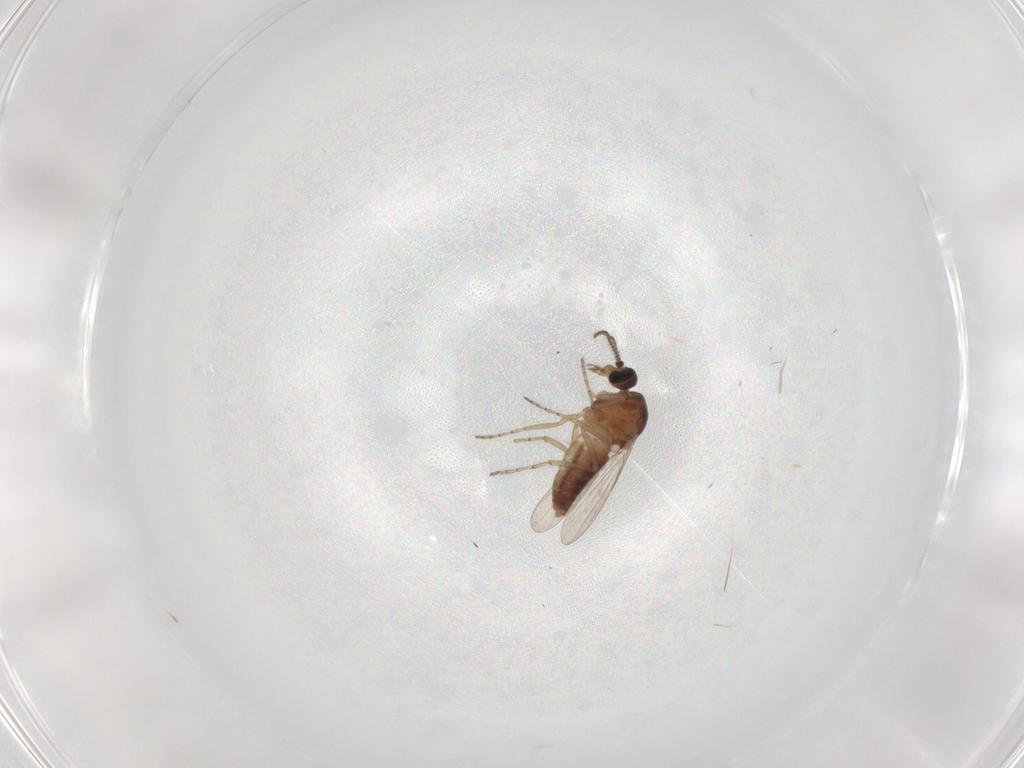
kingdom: Animalia
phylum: Arthropoda
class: Insecta
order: Diptera
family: Ceratopogonidae
